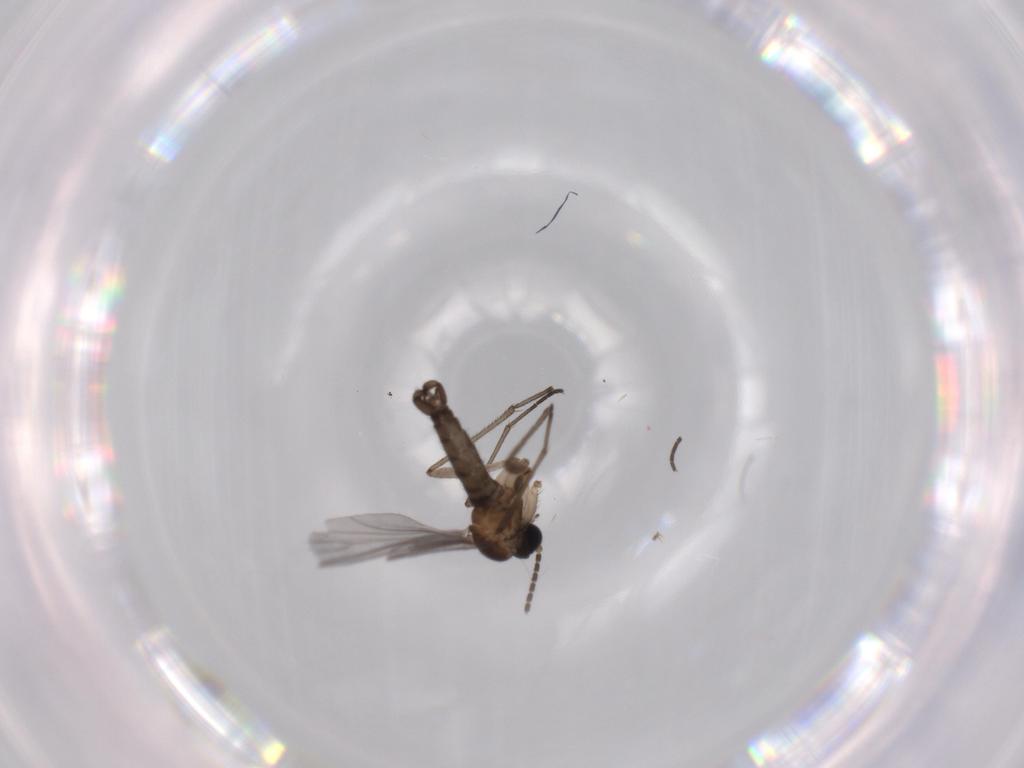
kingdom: Animalia
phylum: Arthropoda
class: Insecta
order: Diptera
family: Sciaridae
